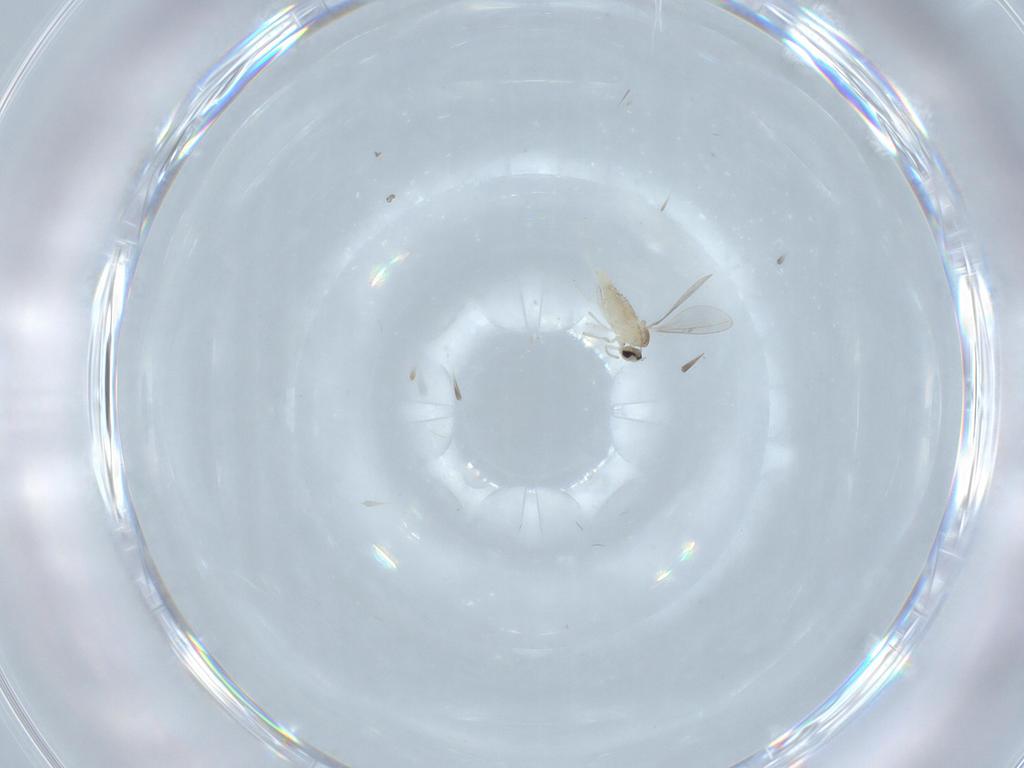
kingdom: Animalia
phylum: Arthropoda
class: Insecta
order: Diptera
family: Cecidomyiidae
